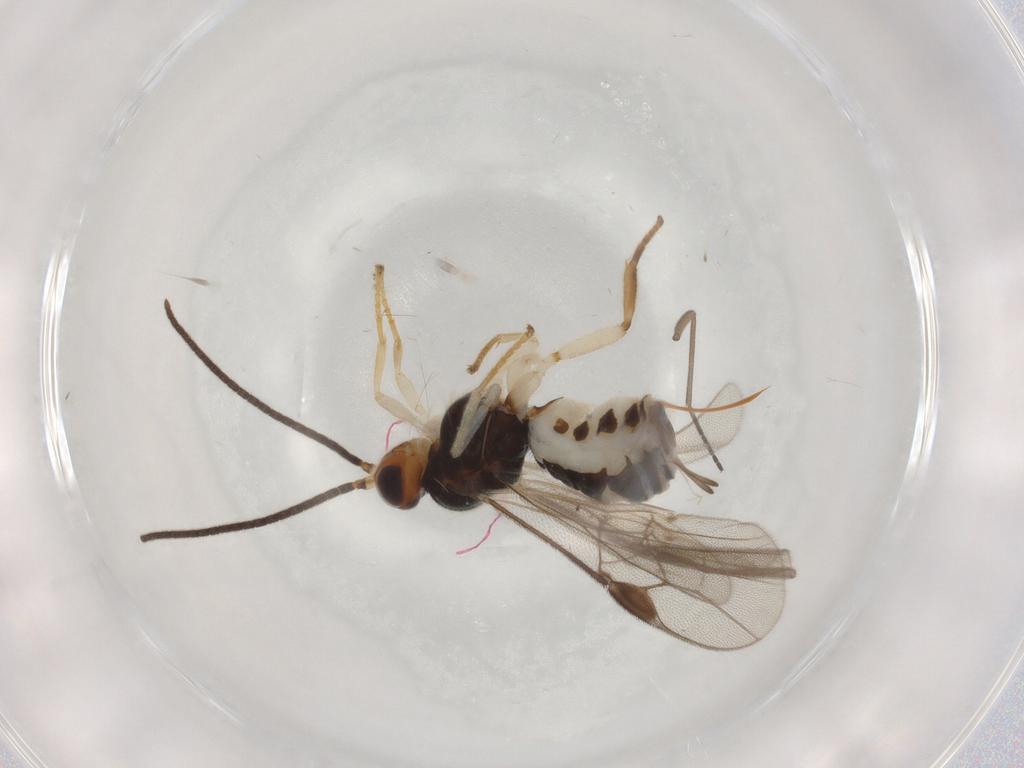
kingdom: Animalia
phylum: Arthropoda
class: Insecta
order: Hymenoptera
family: Braconidae
